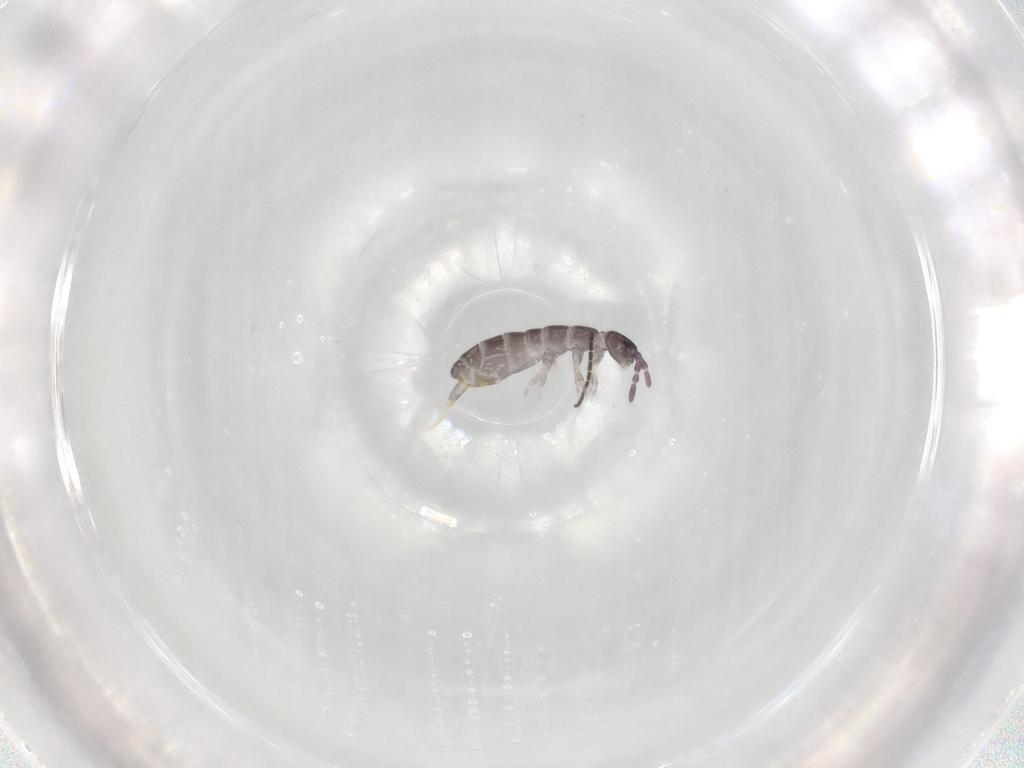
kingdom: Animalia
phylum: Arthropoda
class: Collembola
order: Entomobryomorpha
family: Isotomidae
